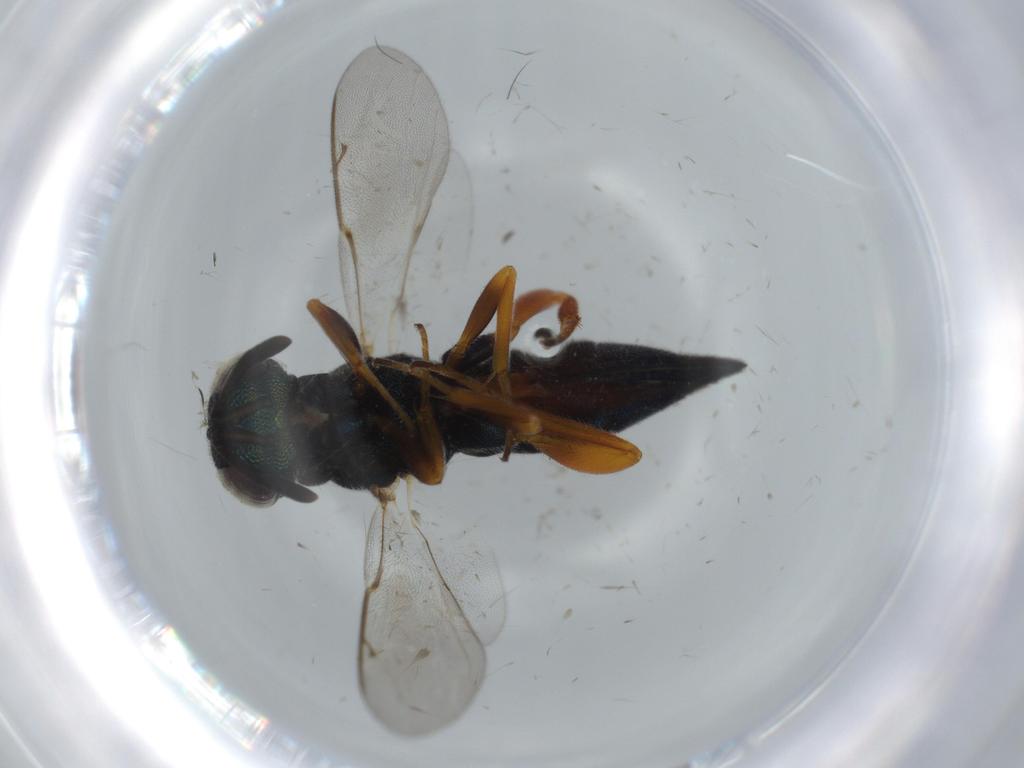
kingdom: Animalia
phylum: Arthropoda
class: Insecta
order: Hymenoptera
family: Lyciscidae
